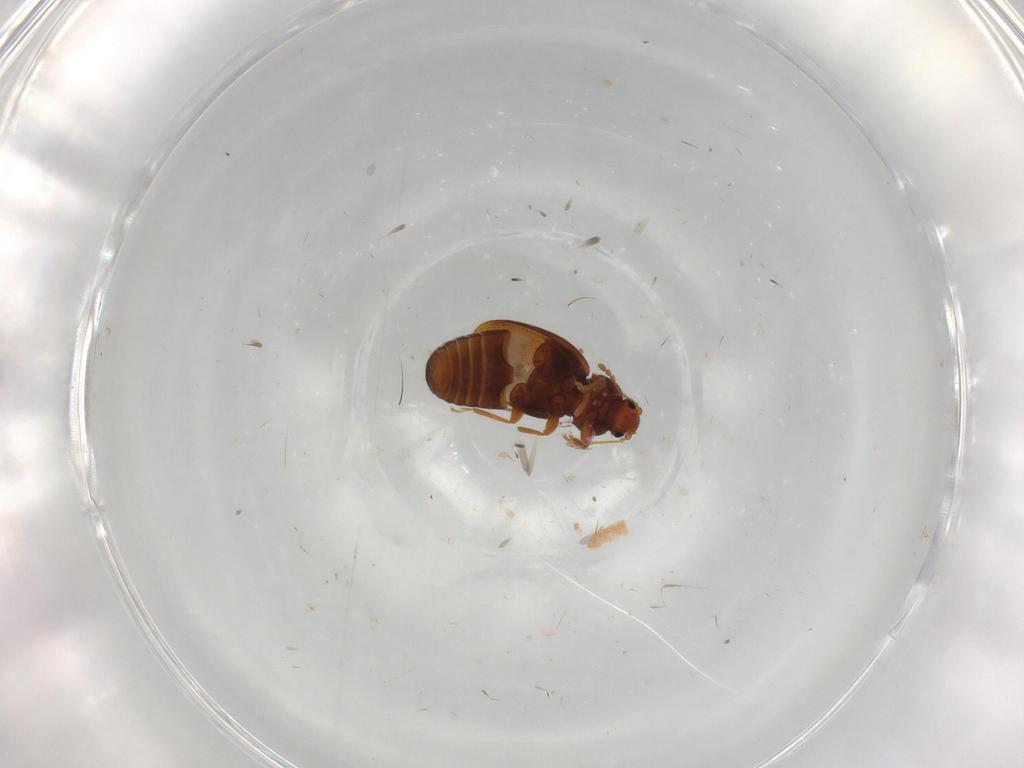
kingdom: Animalia
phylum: Arthropoda
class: Insecta
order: Coleoptera
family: Latridiidae
